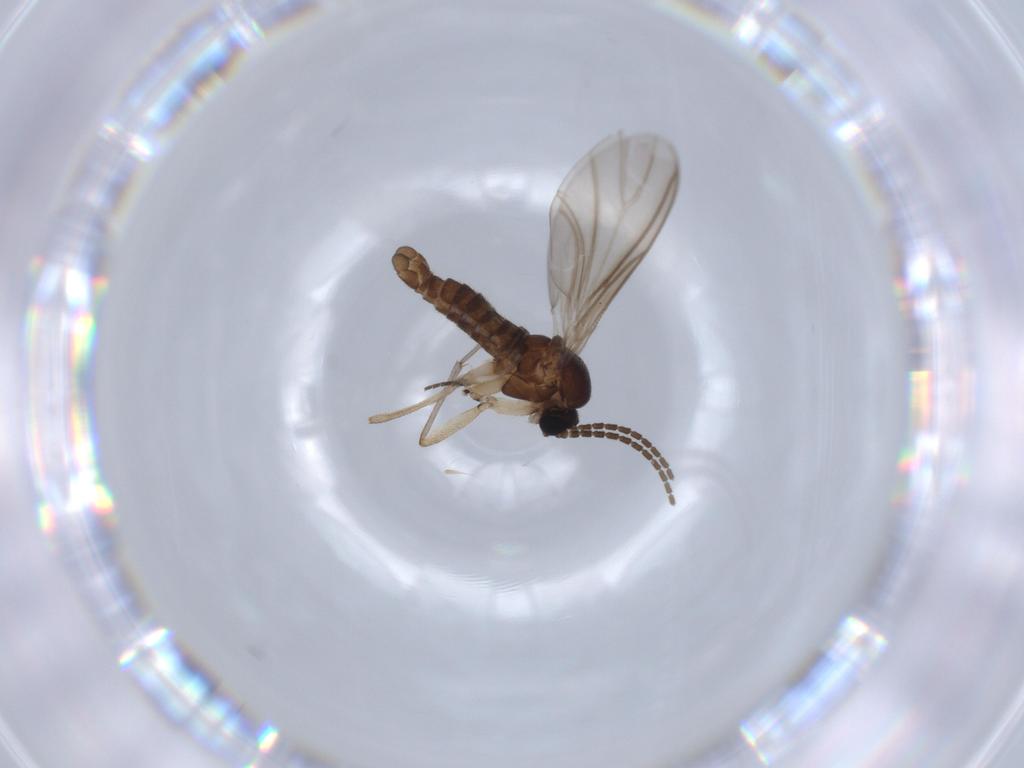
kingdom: Animalia
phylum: Arthropoda
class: Insecta
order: Diptera
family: Sciaridae
